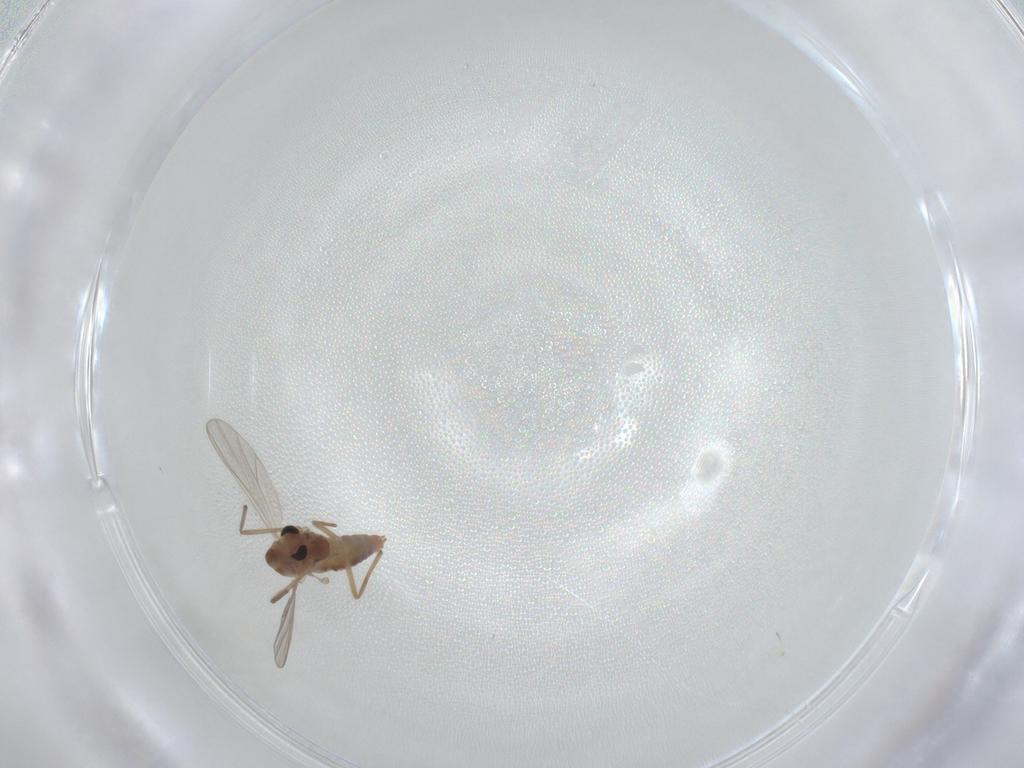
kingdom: Animalia
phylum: Arthropoda
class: Insecta
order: Diptera
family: Chironomidae
